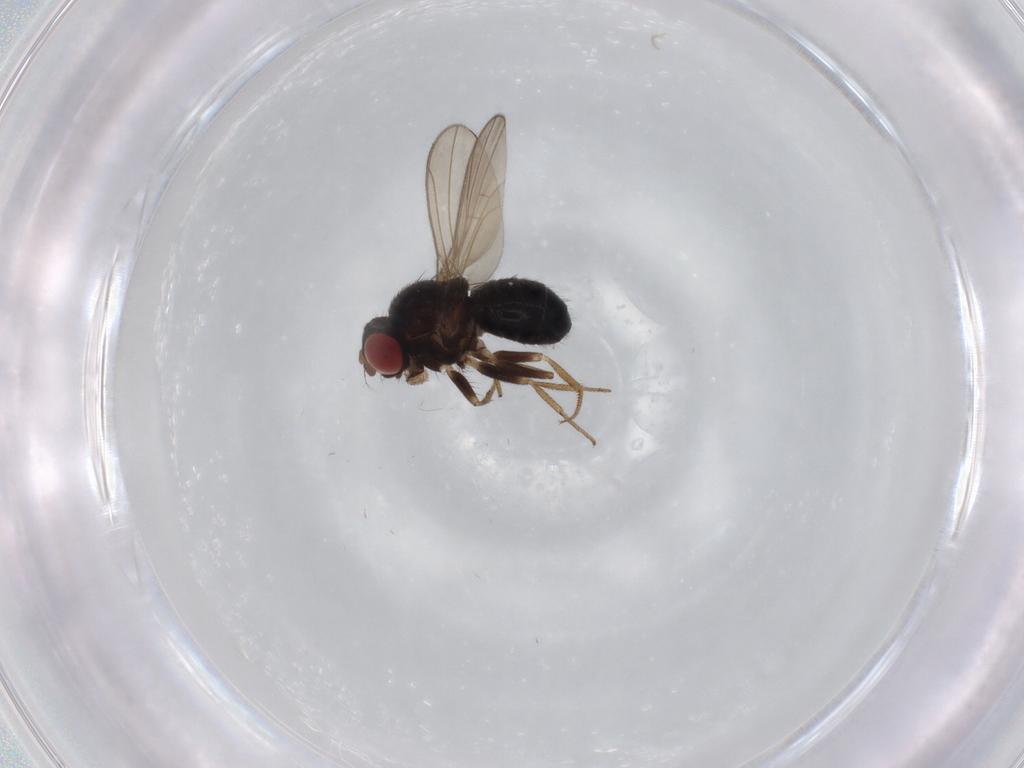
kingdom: Animalia
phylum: Arthropoda
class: Insecta
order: Diptera
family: Drosophilidae
